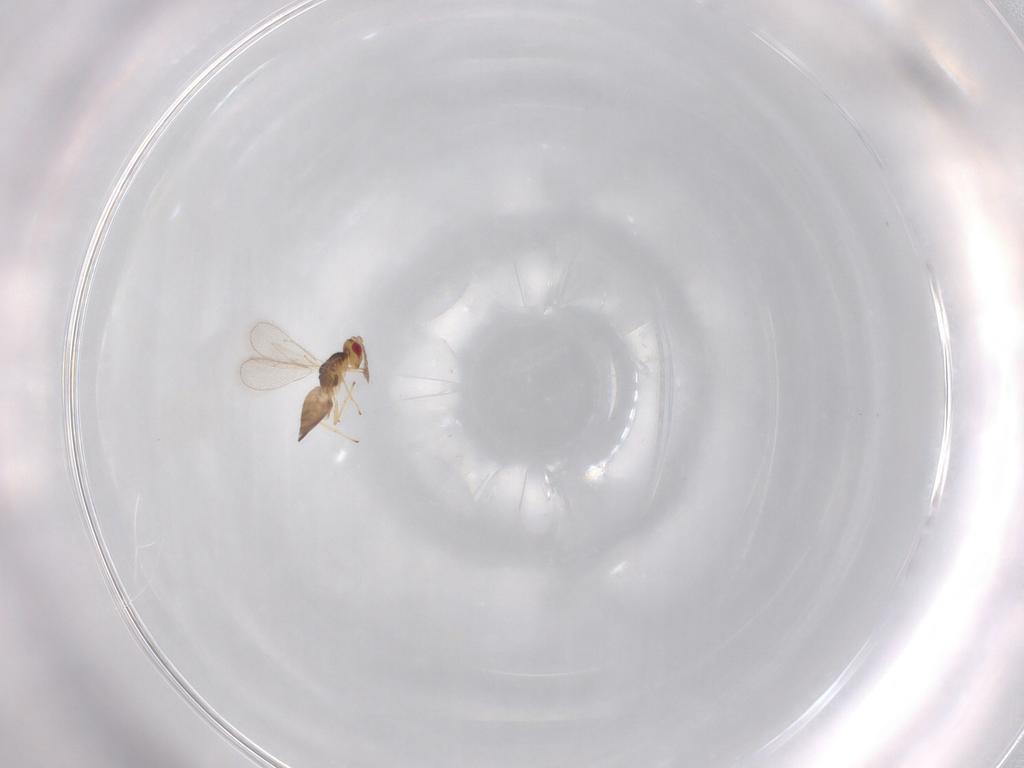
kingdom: Animalia
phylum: Arthropoda
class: Insecta
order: Hymenoptera
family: Eulophidae
